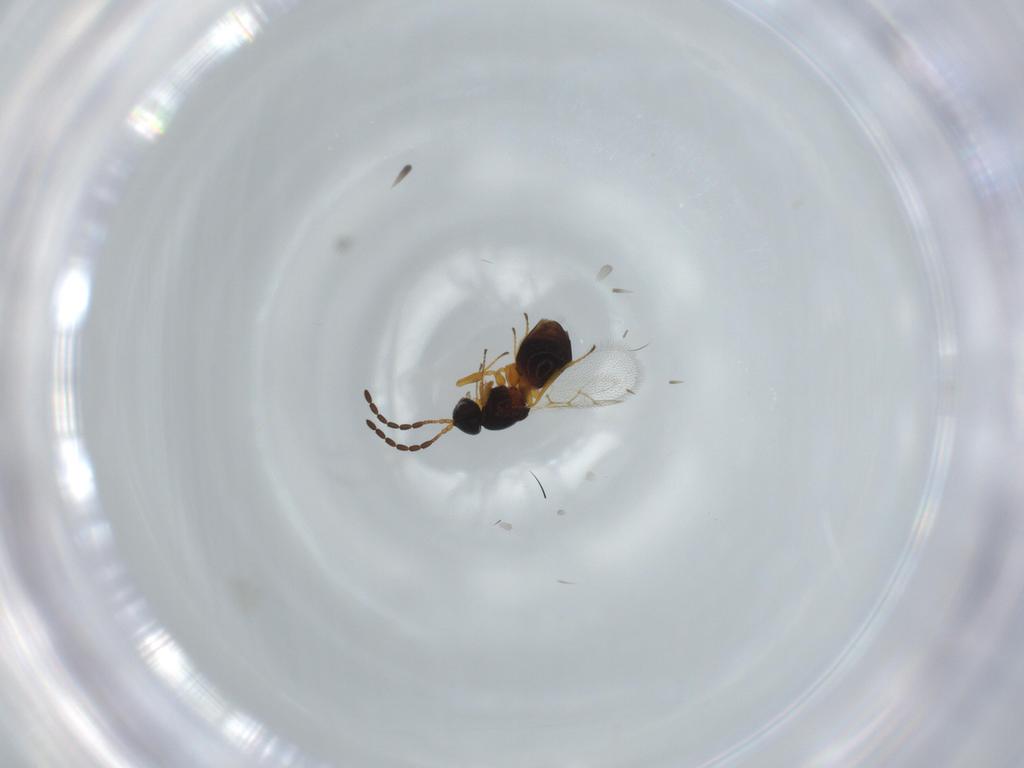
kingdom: Animalia
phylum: Arthropoda
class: Insecta
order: Hymenoptera
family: Figitidae
